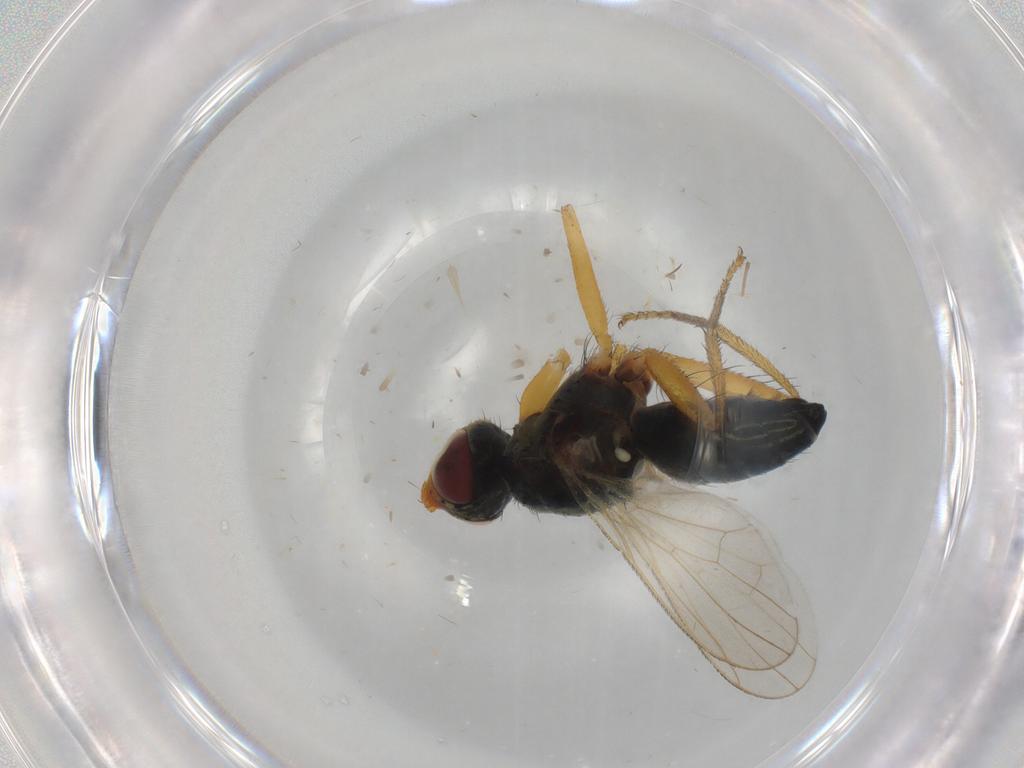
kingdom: Animalia
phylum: Arthropoda
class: Insecta
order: Diptera
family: Chironomidae
